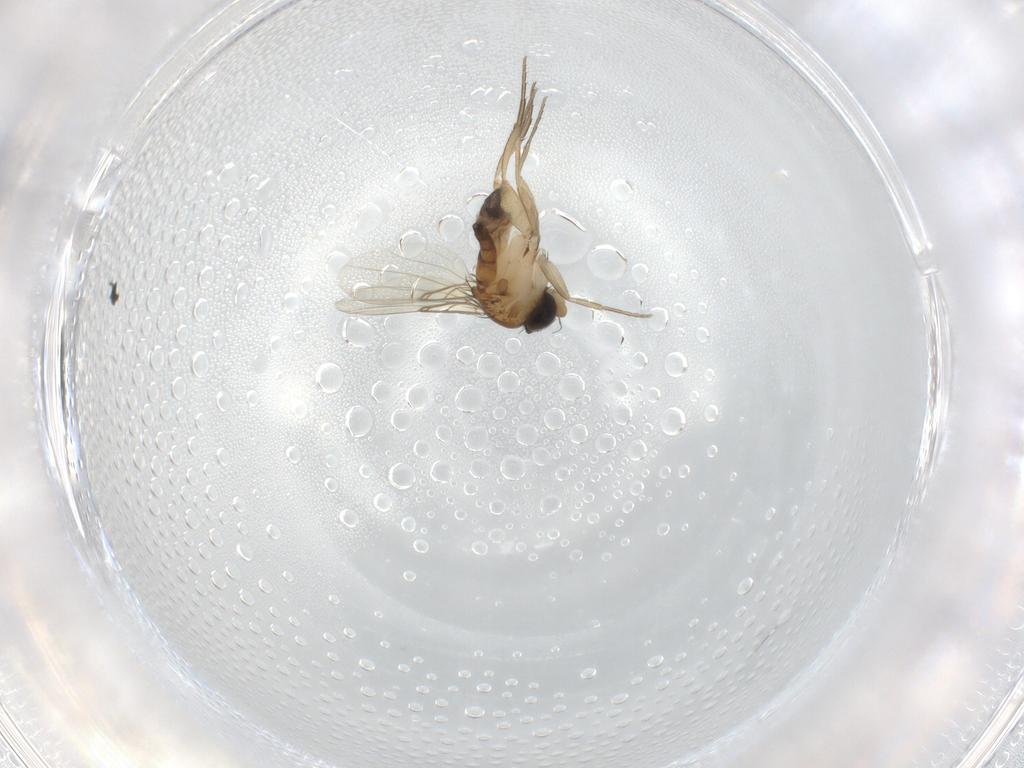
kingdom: Animalia
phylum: Arthropoda
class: Insecta
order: Diptera
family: Phoridae
